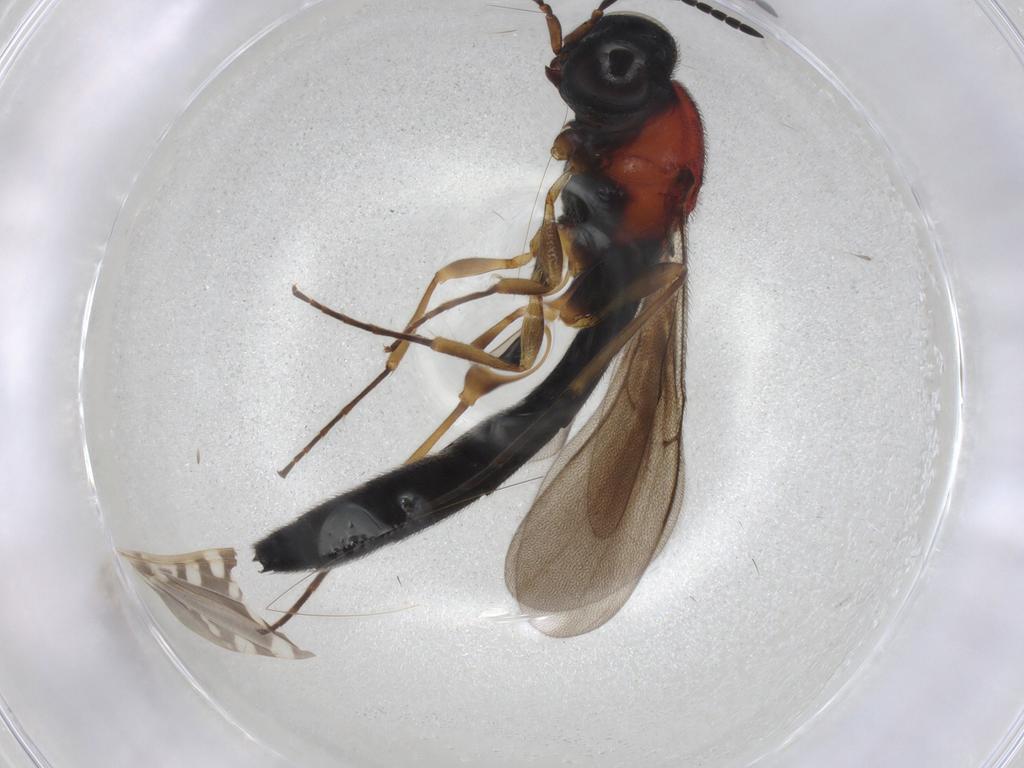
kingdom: Animalia
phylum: Arthropoda
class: Insecta
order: Diptera
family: Limoniidae
